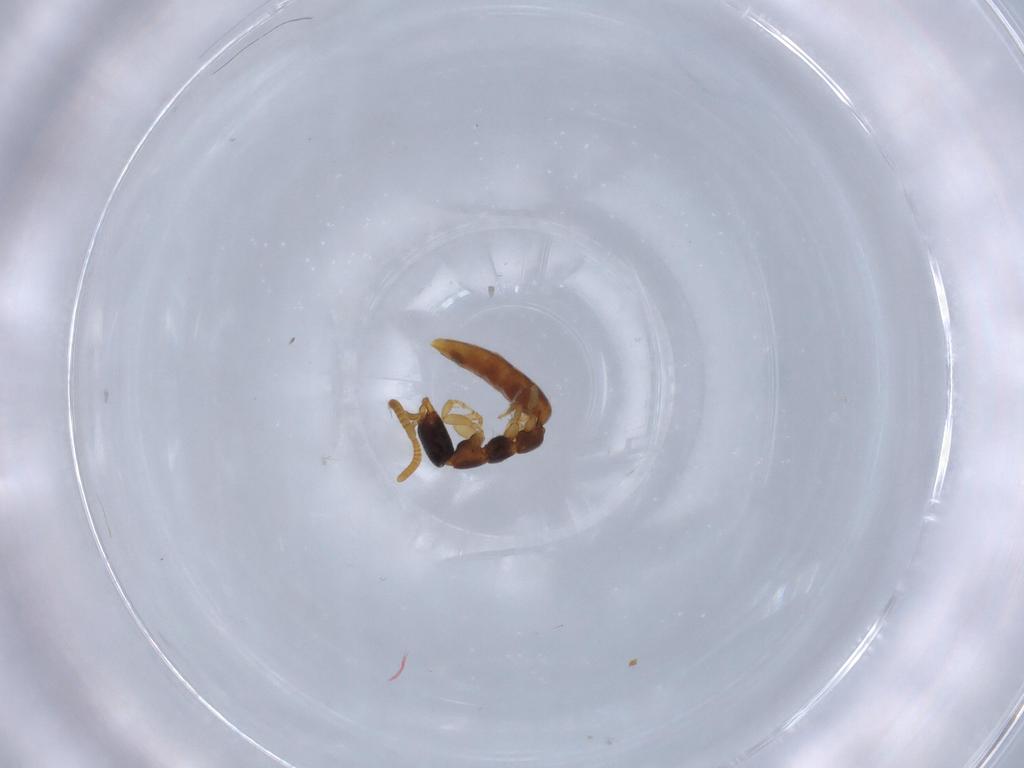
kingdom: Animalia
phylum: Arthropoda
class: Insecta
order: Hymenoptera
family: Bethylidae
